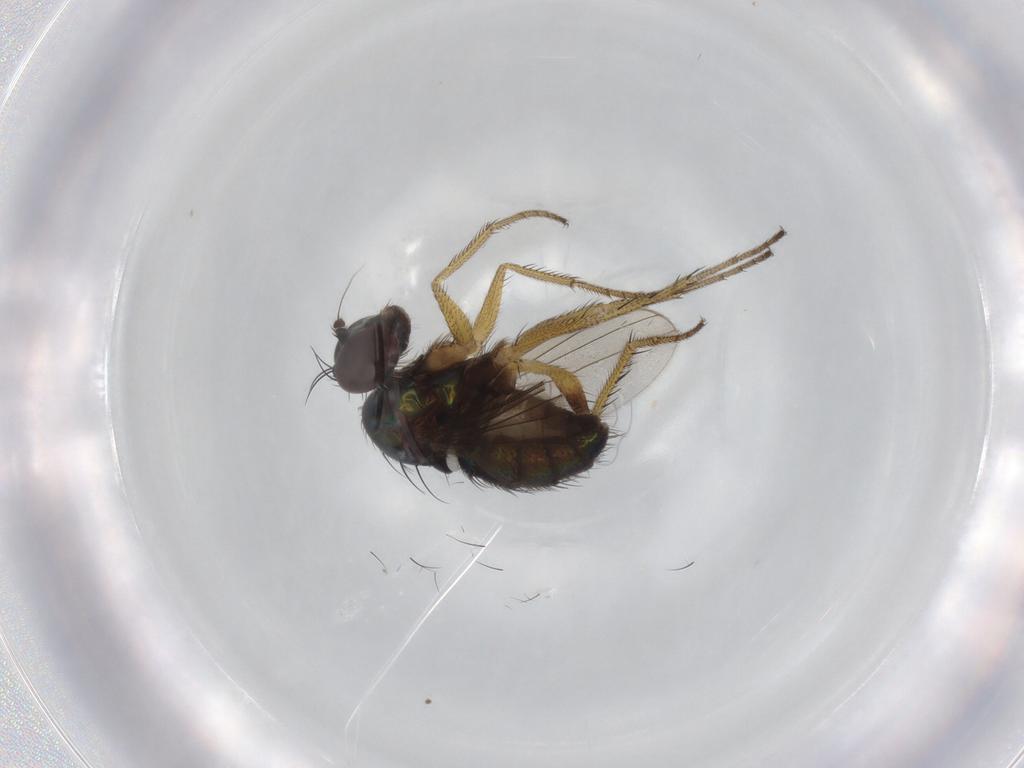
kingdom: Animalia
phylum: Arthropoda
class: Insecta
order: Diptera
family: Dolichopodidae
